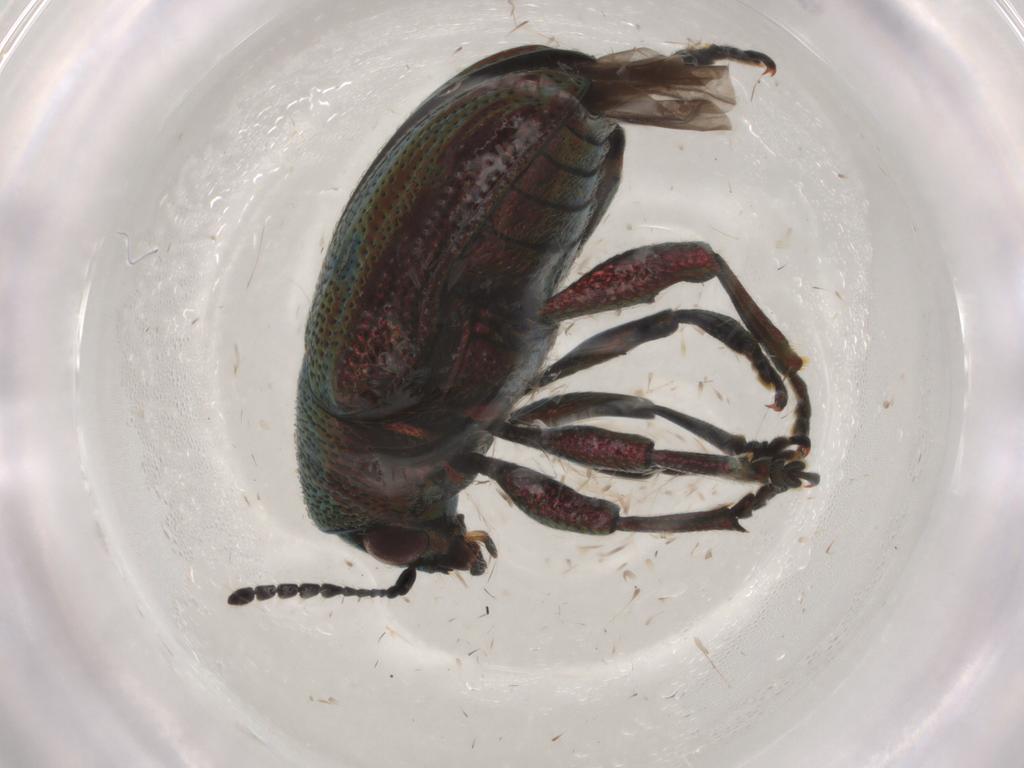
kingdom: Animalia
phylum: Arthropoda
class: Insecta
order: Coleoptera
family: Chrysomelidae
